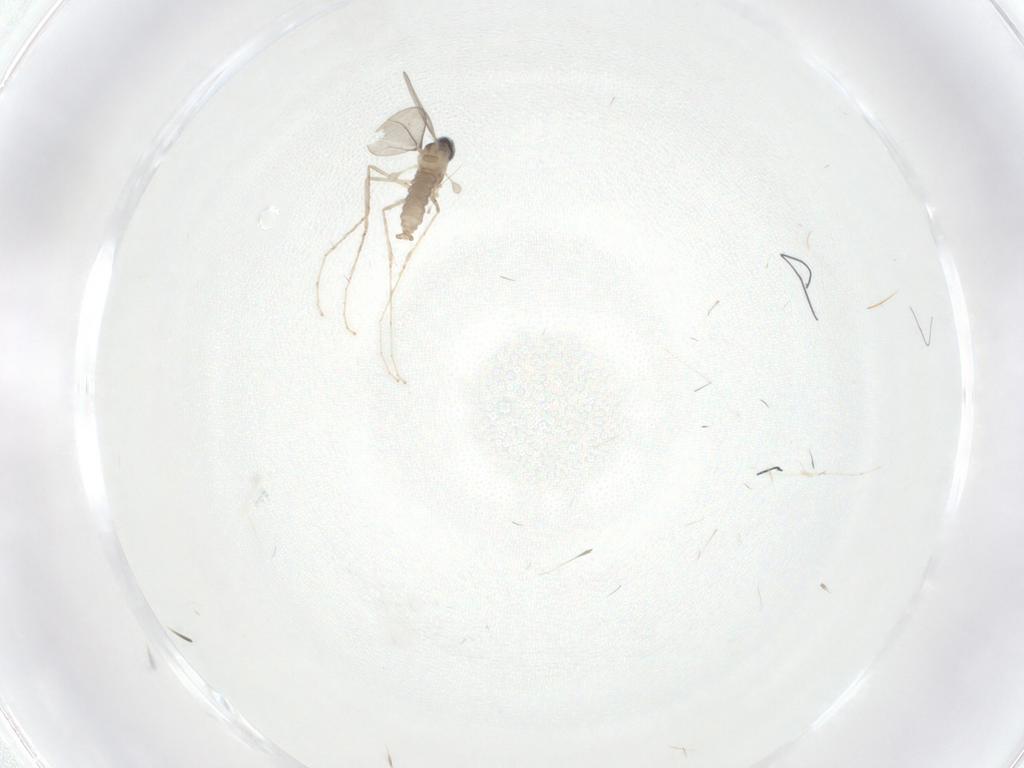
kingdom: Animalia
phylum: Arthropoda
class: Insecta
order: Diptera
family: Cecidomyiidae
